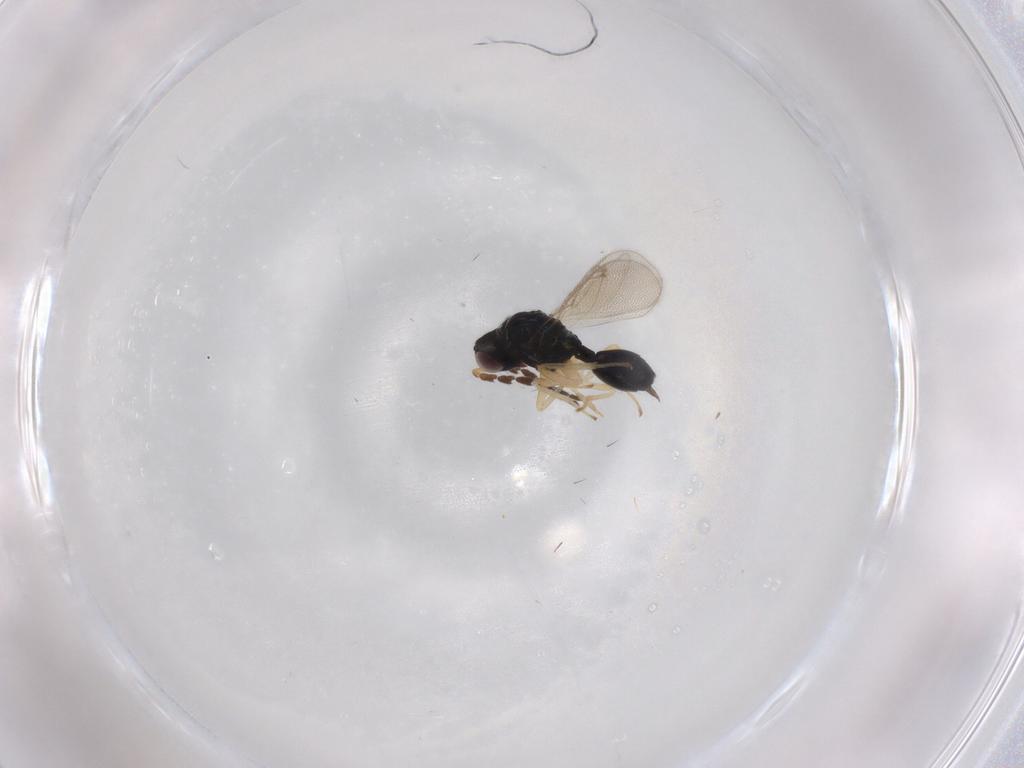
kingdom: Animalia
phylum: Arthropoda
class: Insecta
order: Hymenoptera
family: Eulophidae
